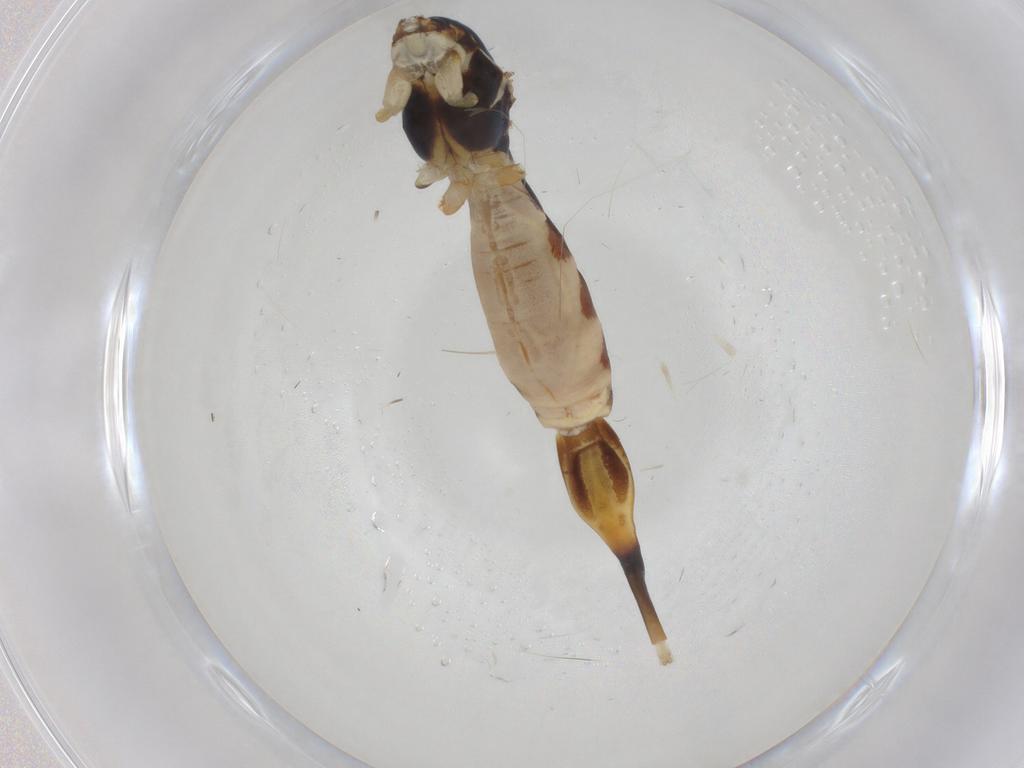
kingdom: Animalia
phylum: Arthropoda
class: Insecta
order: Diptera
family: Micropezidae
